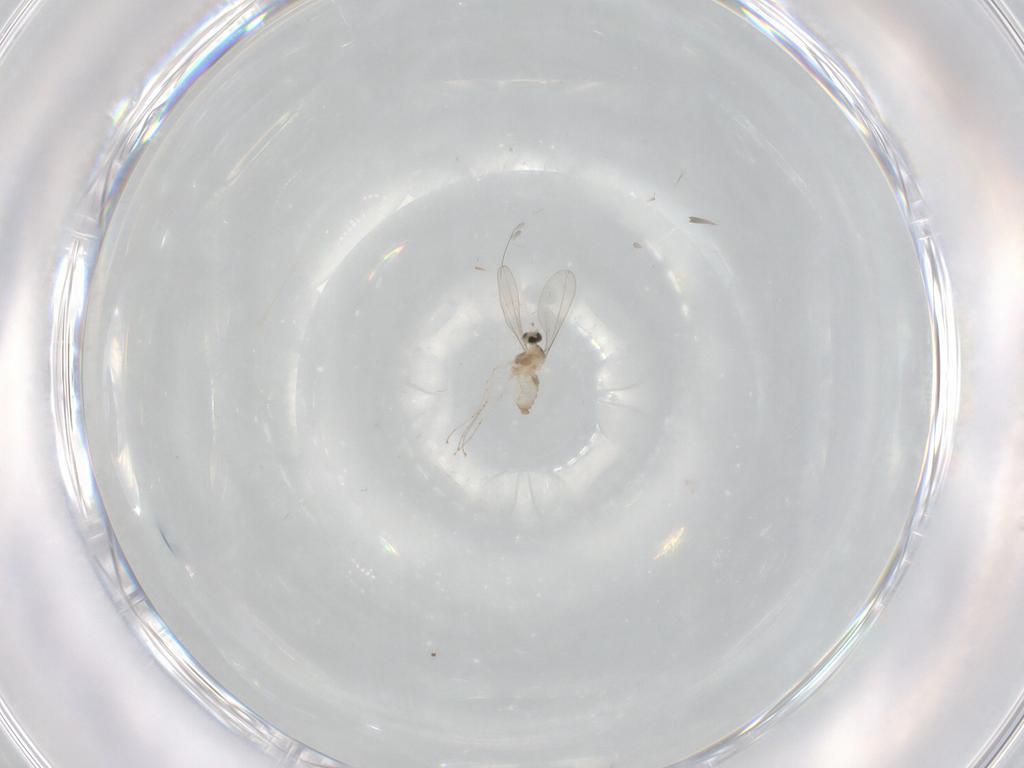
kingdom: Animalia
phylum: Arthropoda
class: Insecta
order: Diptera
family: Cecidomyiidae
